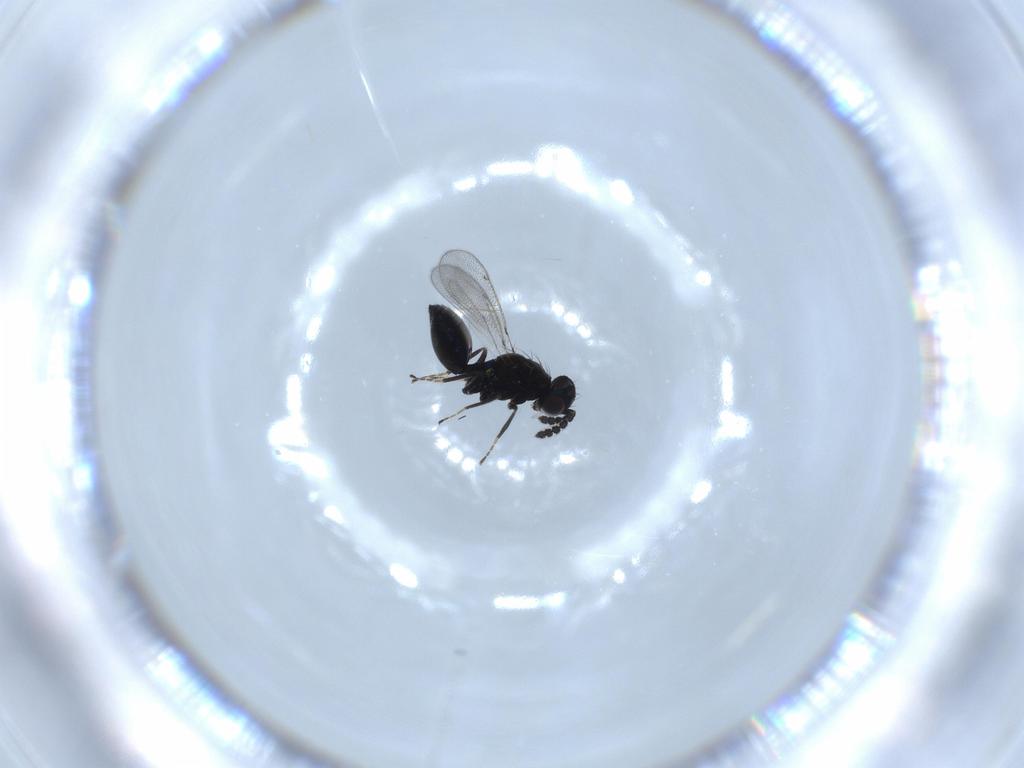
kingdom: Animalia
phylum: Arthropoda
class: Insecta
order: Hymenoptera
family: Eulophidae
